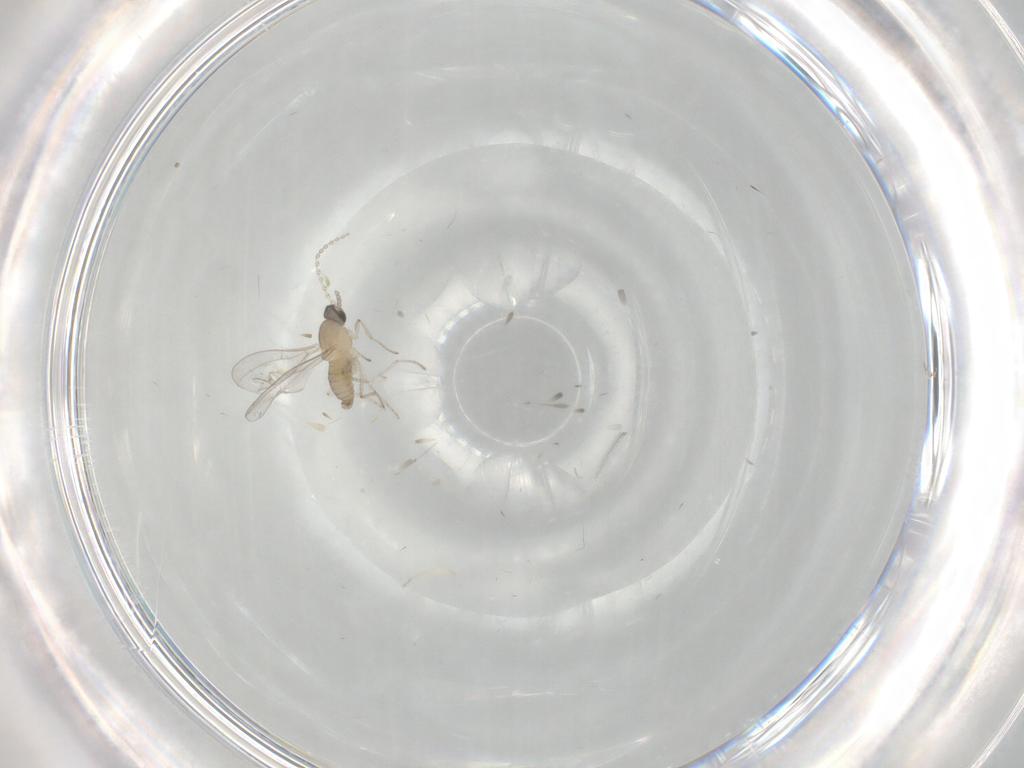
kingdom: Animalia
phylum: Arthropoda
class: Insecta
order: Diptera
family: Cecidomyiidae
